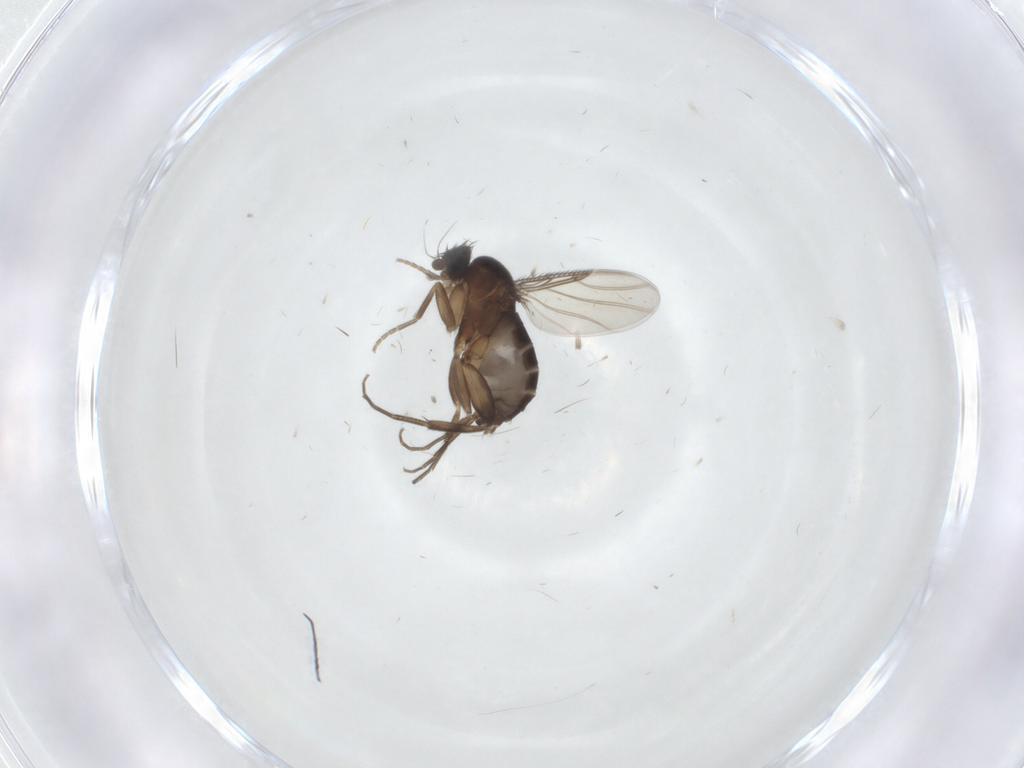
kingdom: Animalia
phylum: Arthropoda
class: Insecta
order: Diptera
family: Phoridae
